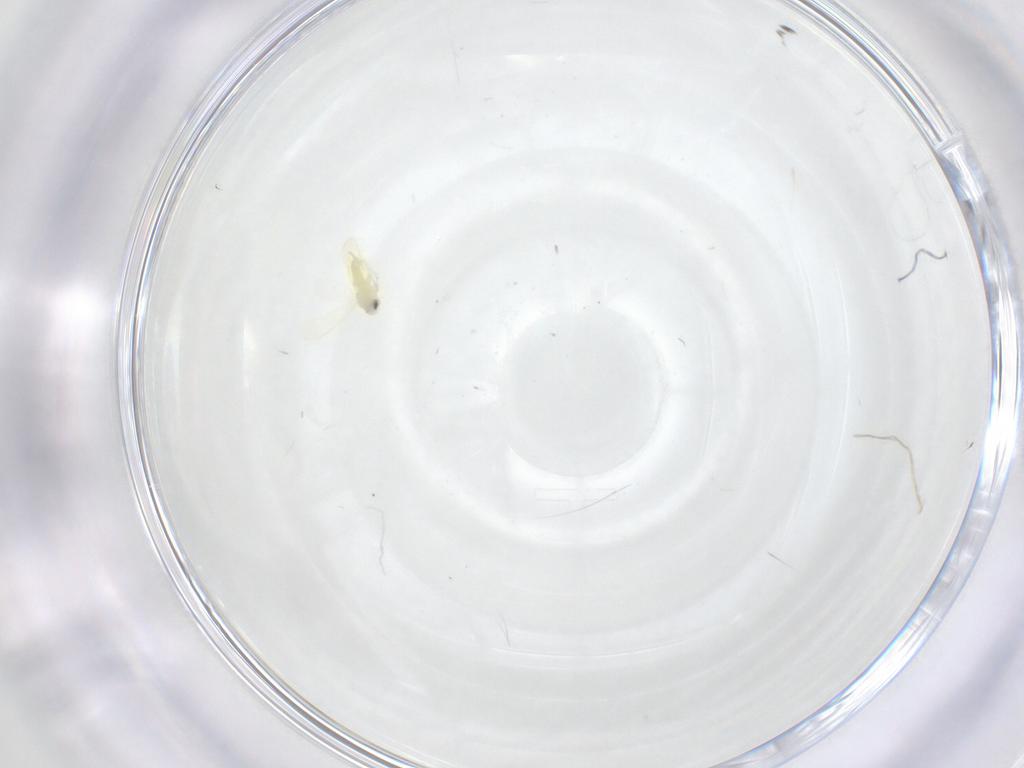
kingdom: Animalia
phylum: Arthropoda
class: Insecta
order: Hemiptera
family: Aleyrodidae
